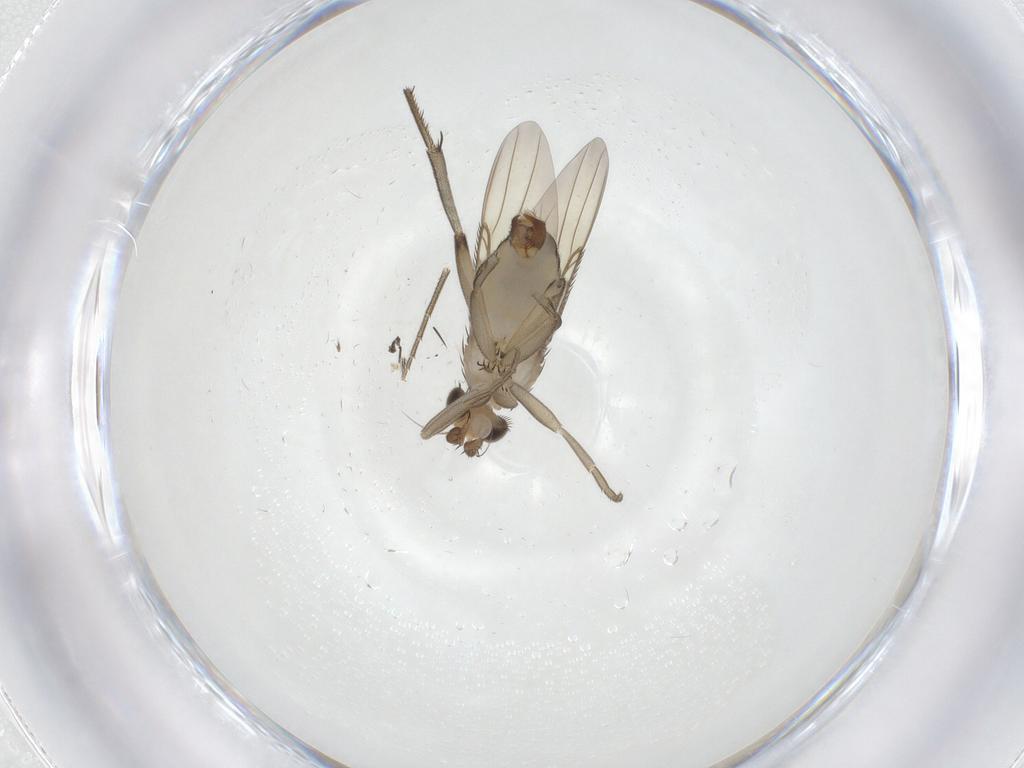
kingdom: Animalia
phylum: Arthropoda
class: Insecta
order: Diptera
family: Phoridae
